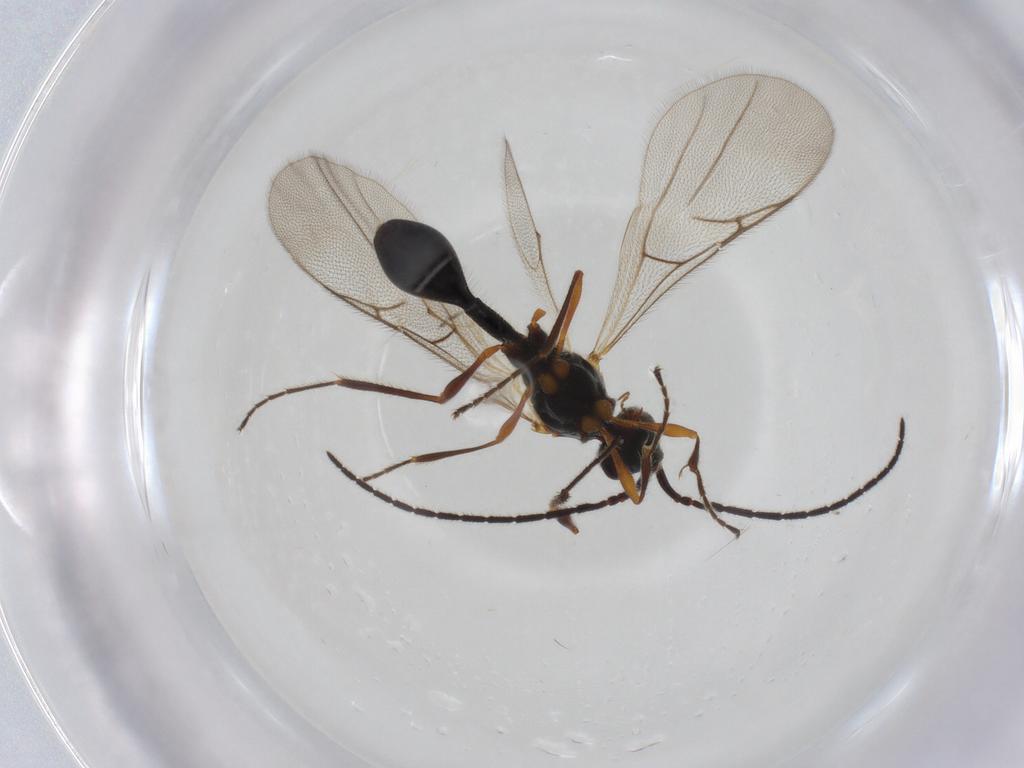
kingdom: Animalia
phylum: Arthropoda
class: Insecta
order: Hymenoptera
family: Diapriidae
